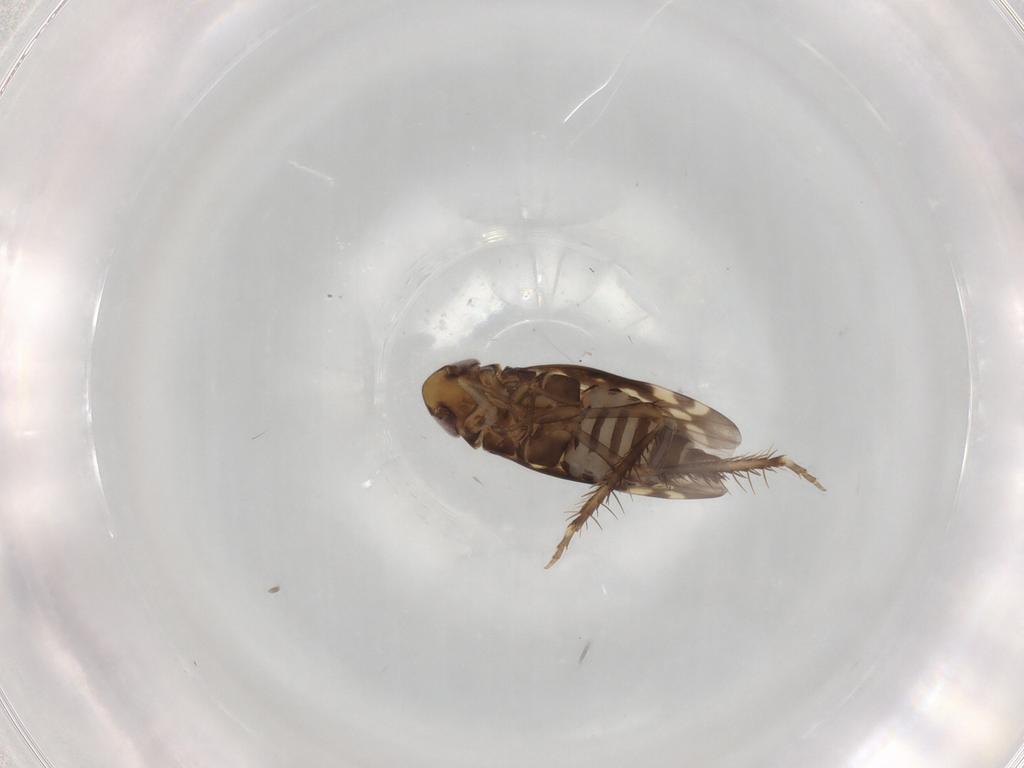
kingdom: Animalia
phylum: Arthropoda
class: Insecta
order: Hemiptera
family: Cicadellidae
